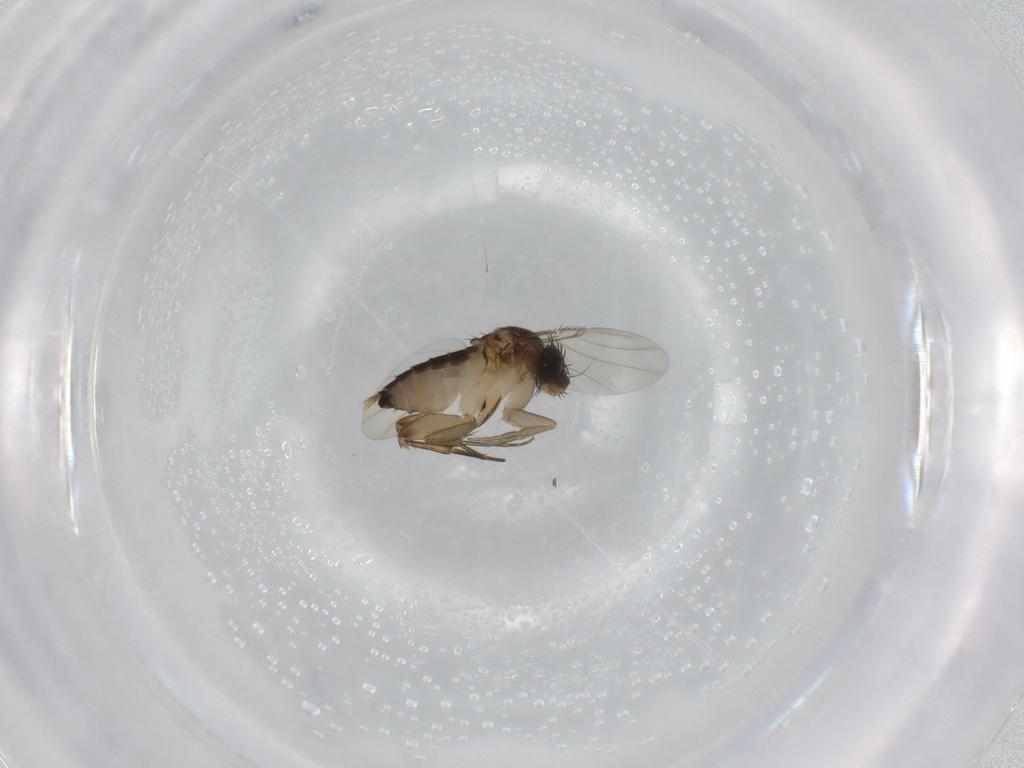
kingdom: Animalia
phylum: Arthropoda
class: Insecta
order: Diptera
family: Phoridae
